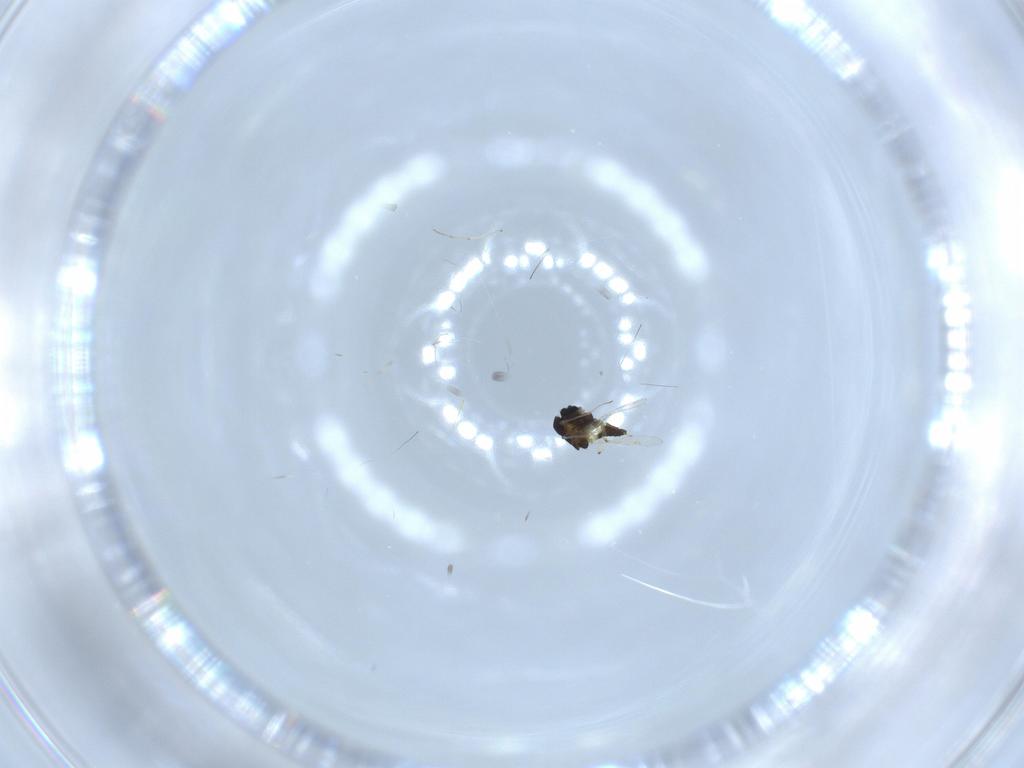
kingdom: Animalia
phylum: Arthropoda
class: Insecta
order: Diptera
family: Chironomidae
